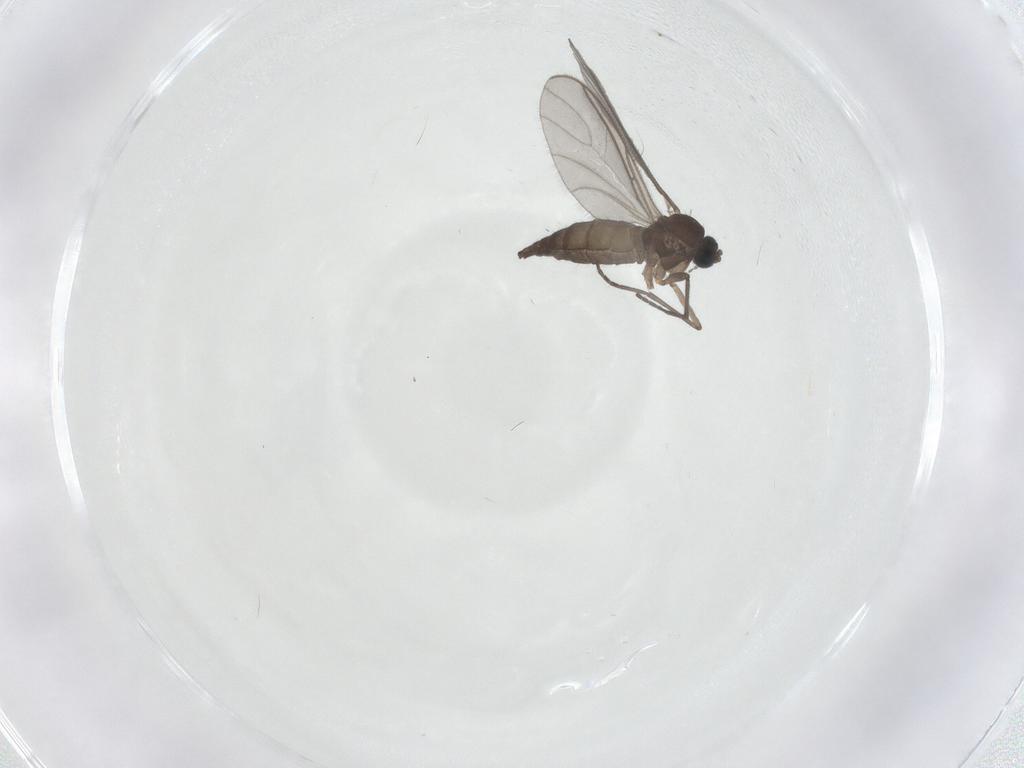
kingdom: Animalia
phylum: Arthropoda
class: Insecta
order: Diptera
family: Sciaridae
